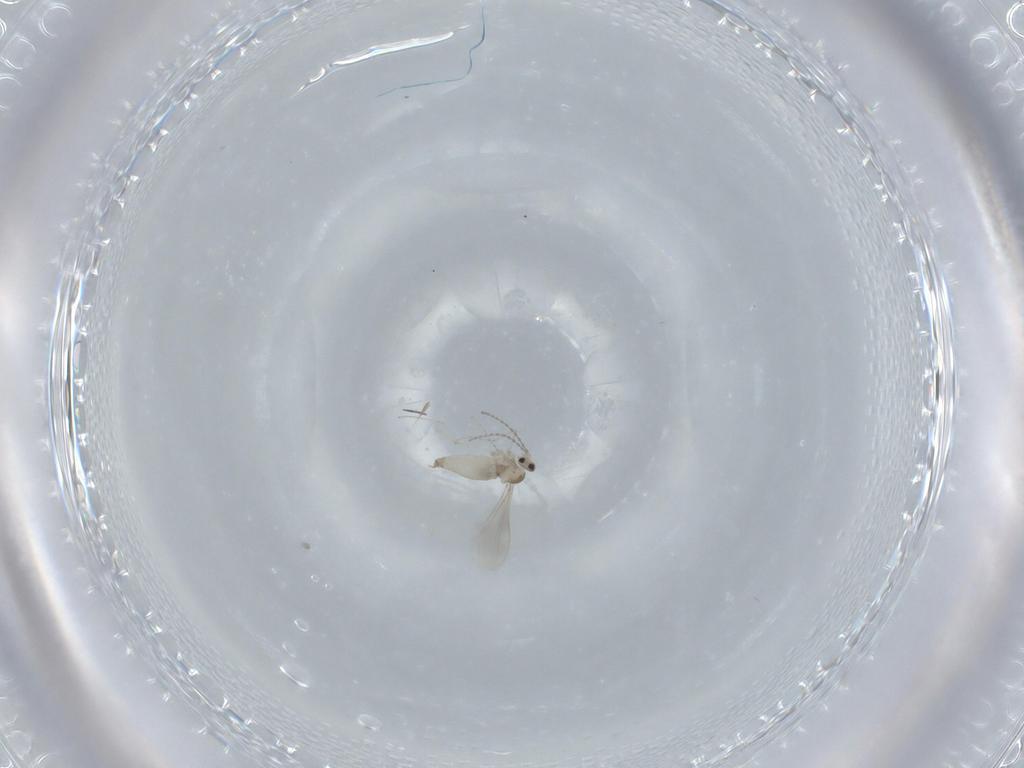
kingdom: Animalia
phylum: Arthropoda
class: Insecta
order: Diptera
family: Cecidomyiidae
